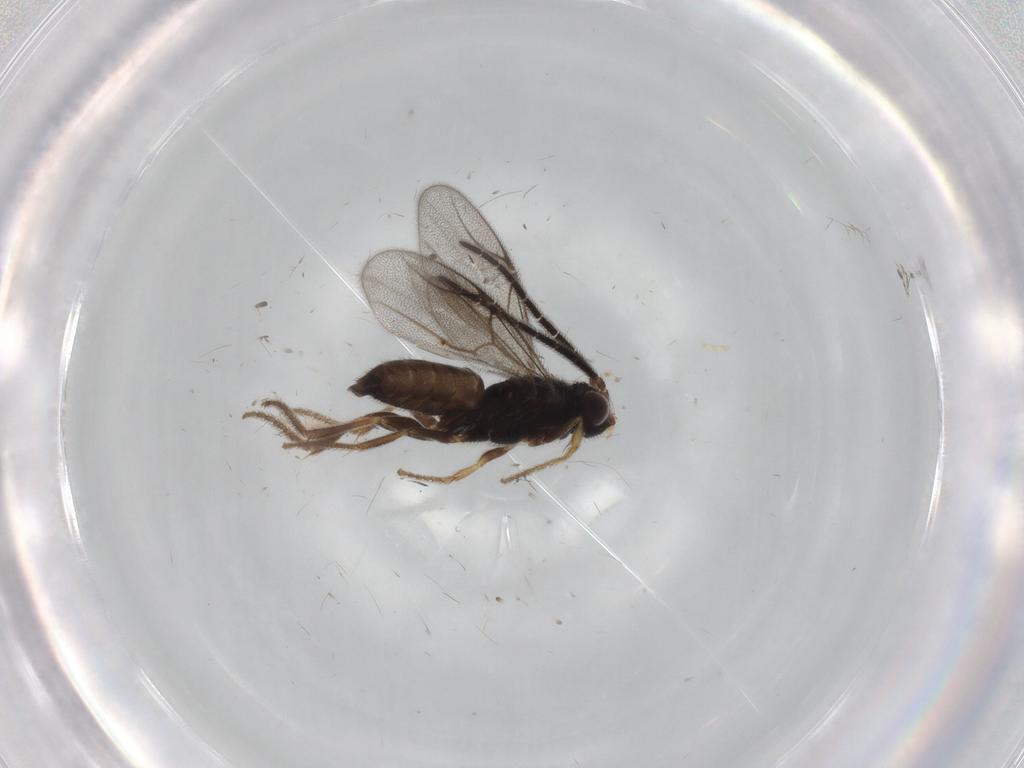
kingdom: Animalia
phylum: Arthropoda
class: Insecta
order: Hymenoptera
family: Dryinidae
